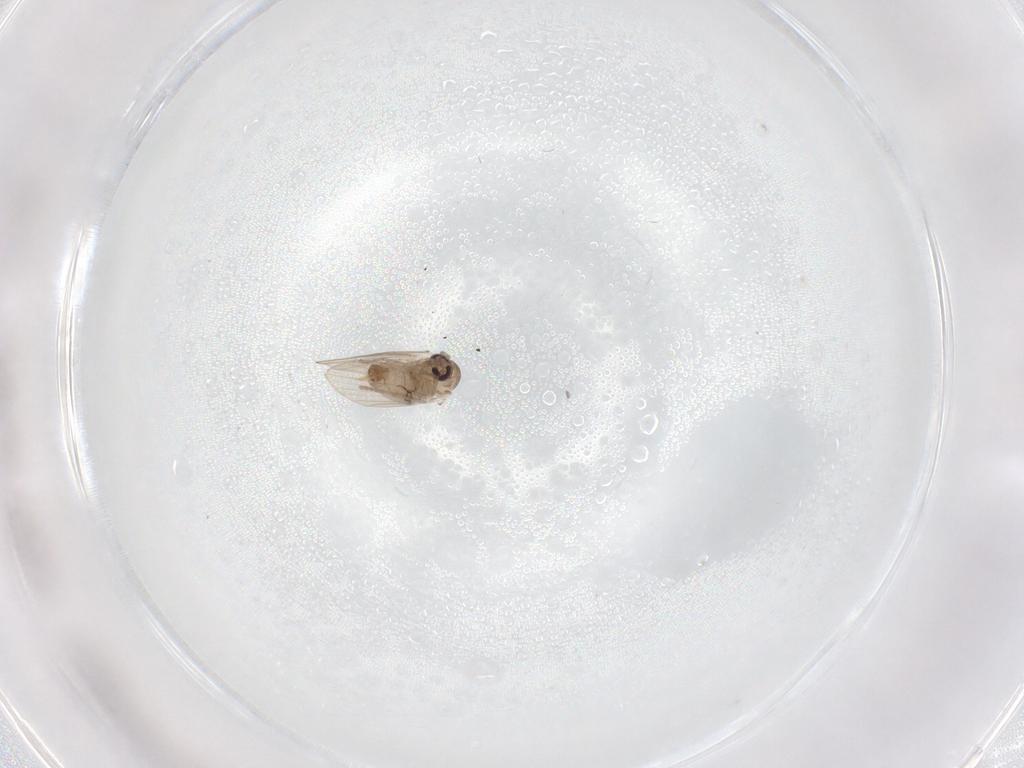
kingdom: Animalia
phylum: Arthropoda
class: Insecta
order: Diptera
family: Psychodidae
